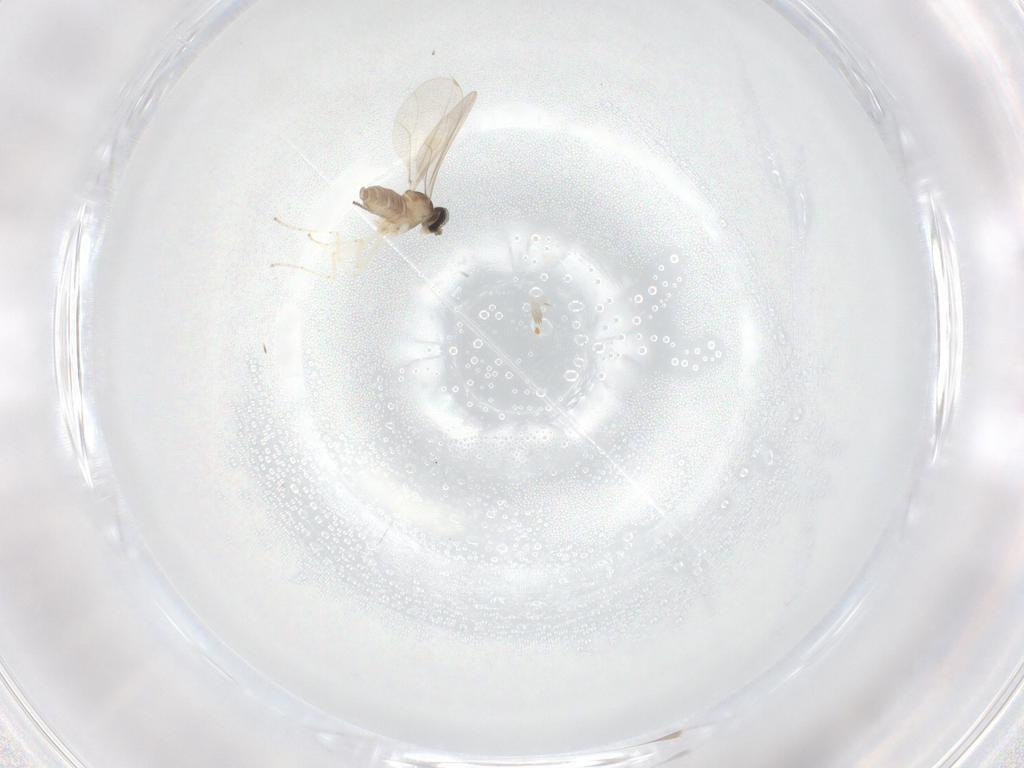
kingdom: Animalia
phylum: Arthropoda
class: Insecta
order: Diptera
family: Cecidomyiidae
